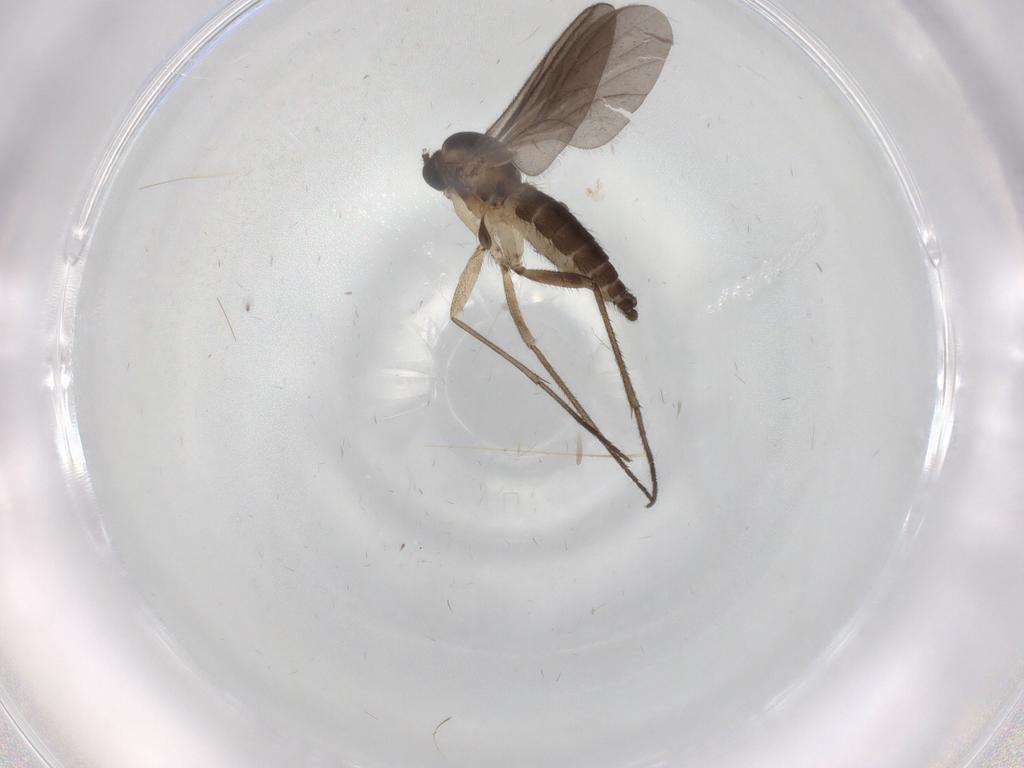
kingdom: Animalia
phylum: Arthropoda
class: Insecta
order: Diptera
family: Sciaridae
